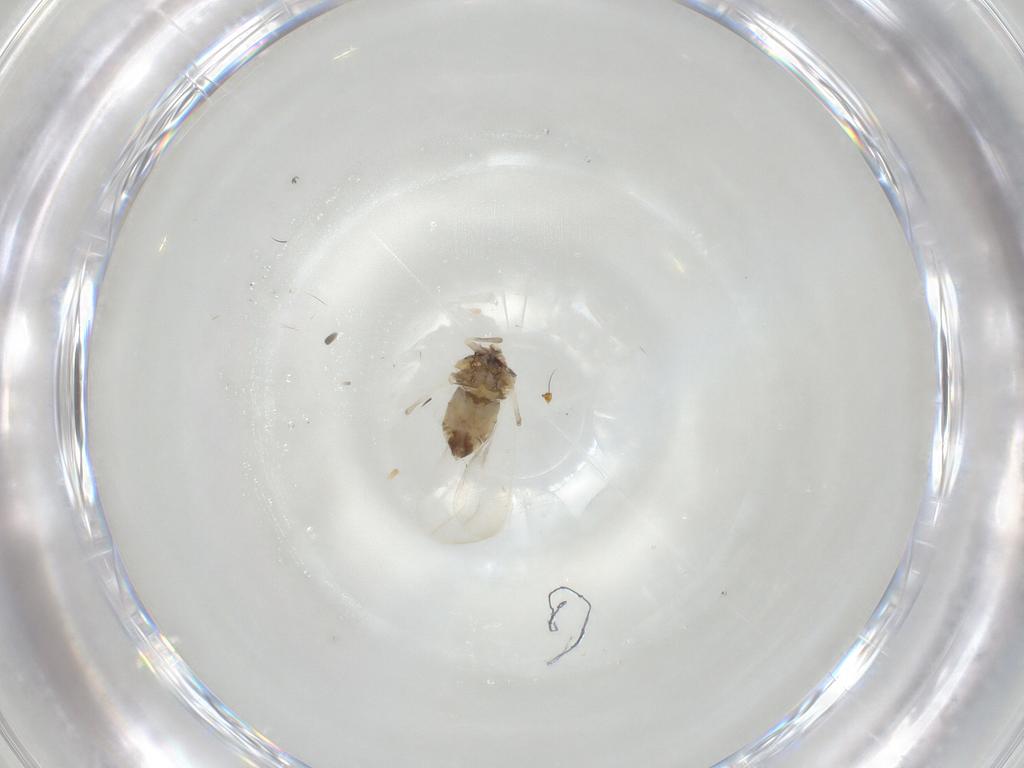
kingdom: Animalia
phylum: Arthropoda
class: Insecta
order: Hemiptera
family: Aleyrodidae
